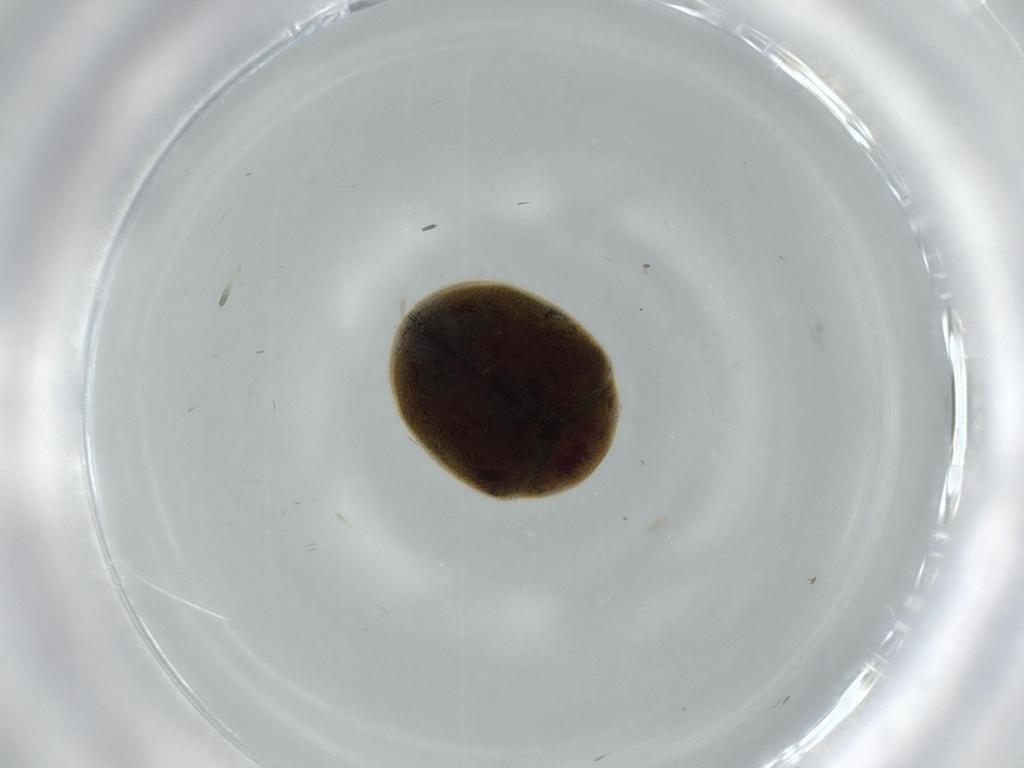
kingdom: Animalia
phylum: Arthropoda
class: Insecta
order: Coleoptera
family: Ptinidae
